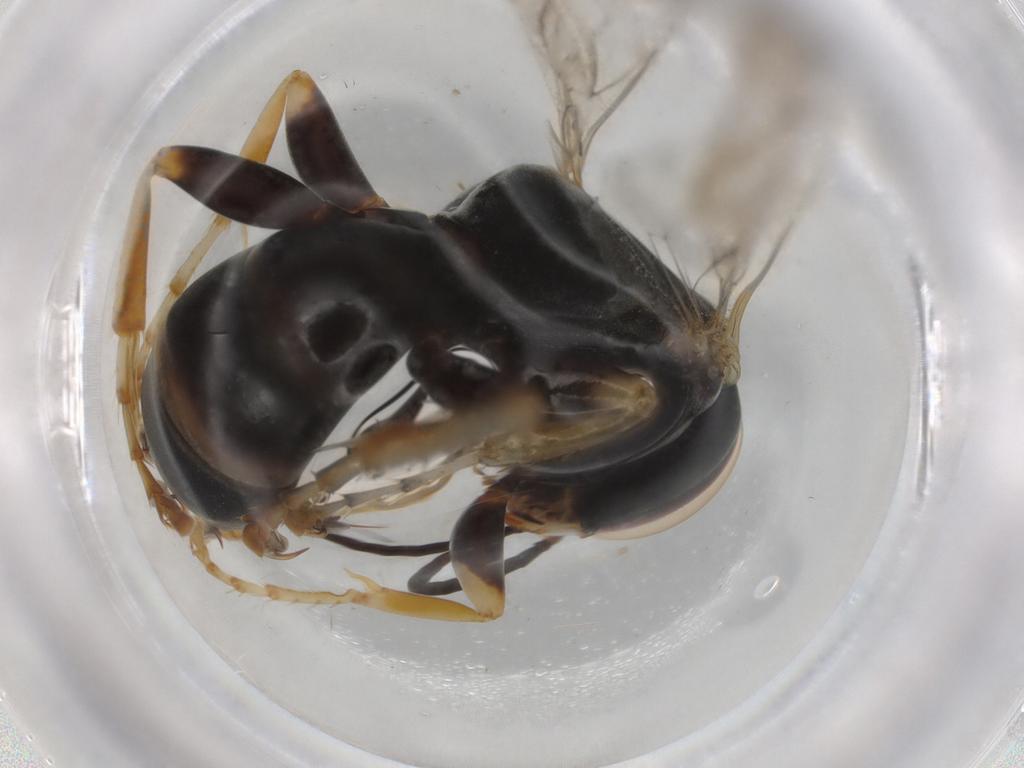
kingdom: Animalia
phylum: Arthropoda
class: Insecta
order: Hymenoptera
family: Crabronidae
